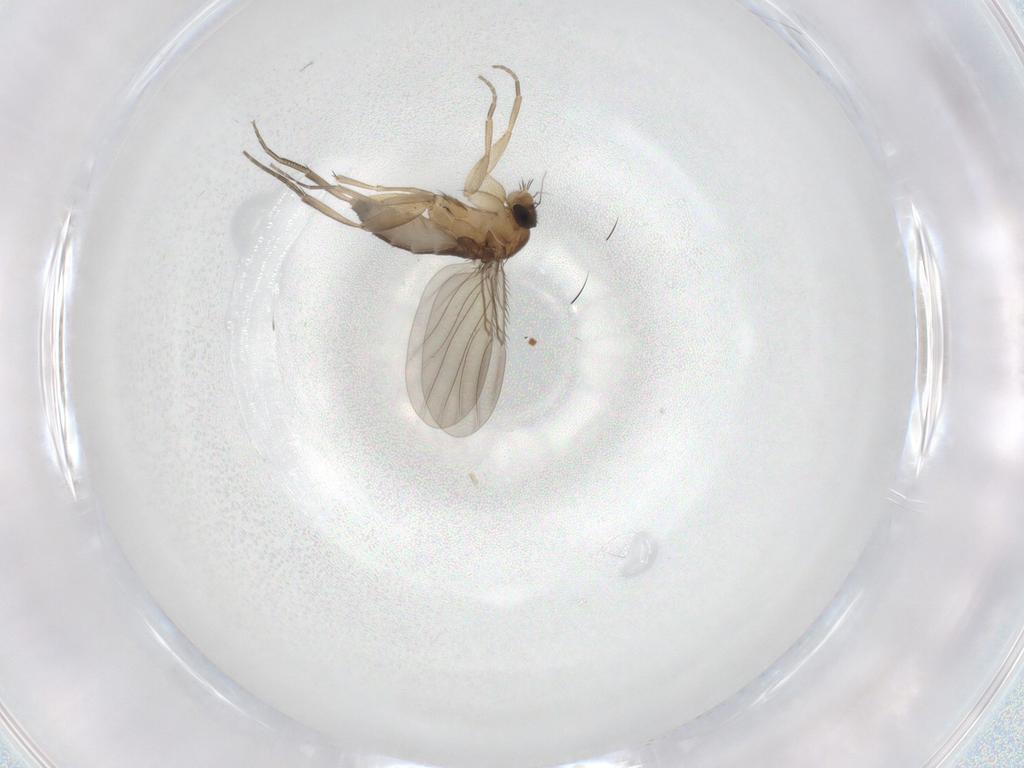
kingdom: Animalia
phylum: Arthropoda
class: Insecta
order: Diptera
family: Phoridae
